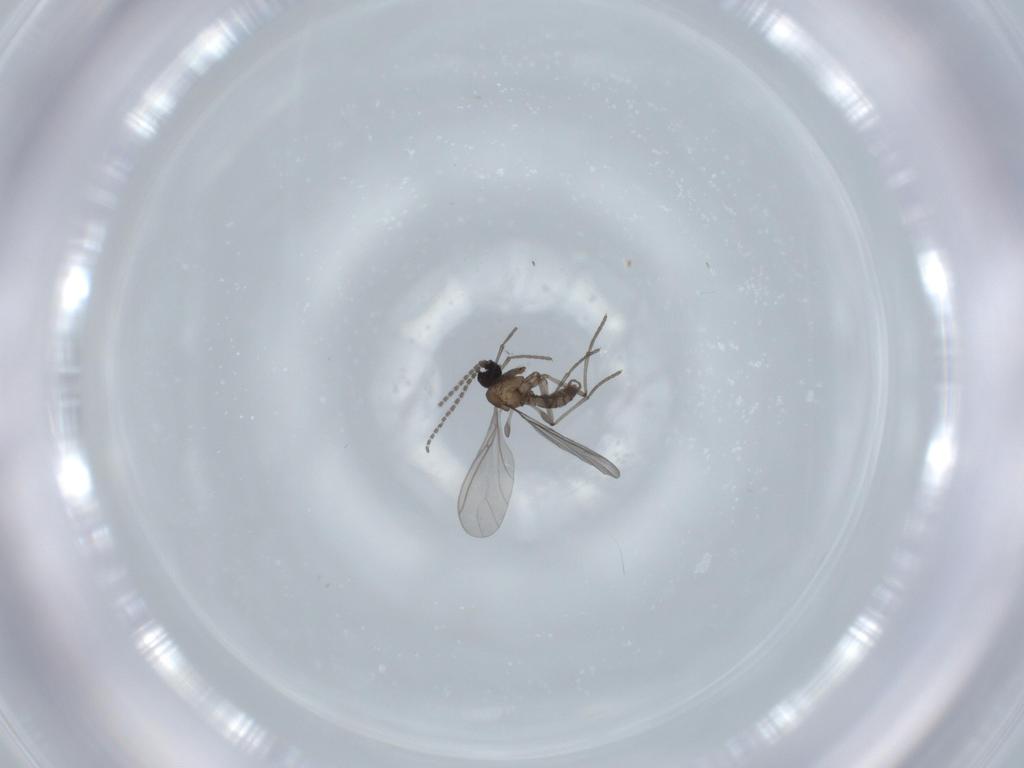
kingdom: Animalia
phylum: Arthropoda
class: Insecta
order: Diptera
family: Sciaridae
